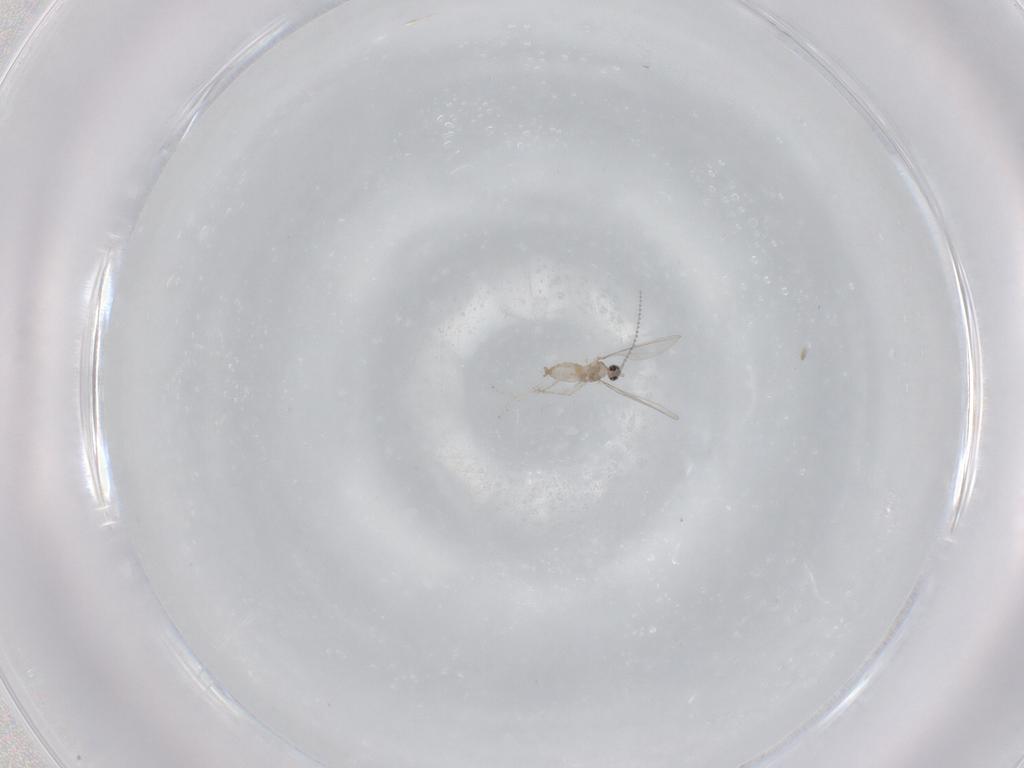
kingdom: Animalia
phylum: Arthropoda
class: Insecta
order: Diptera
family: Cecidomyiidae
